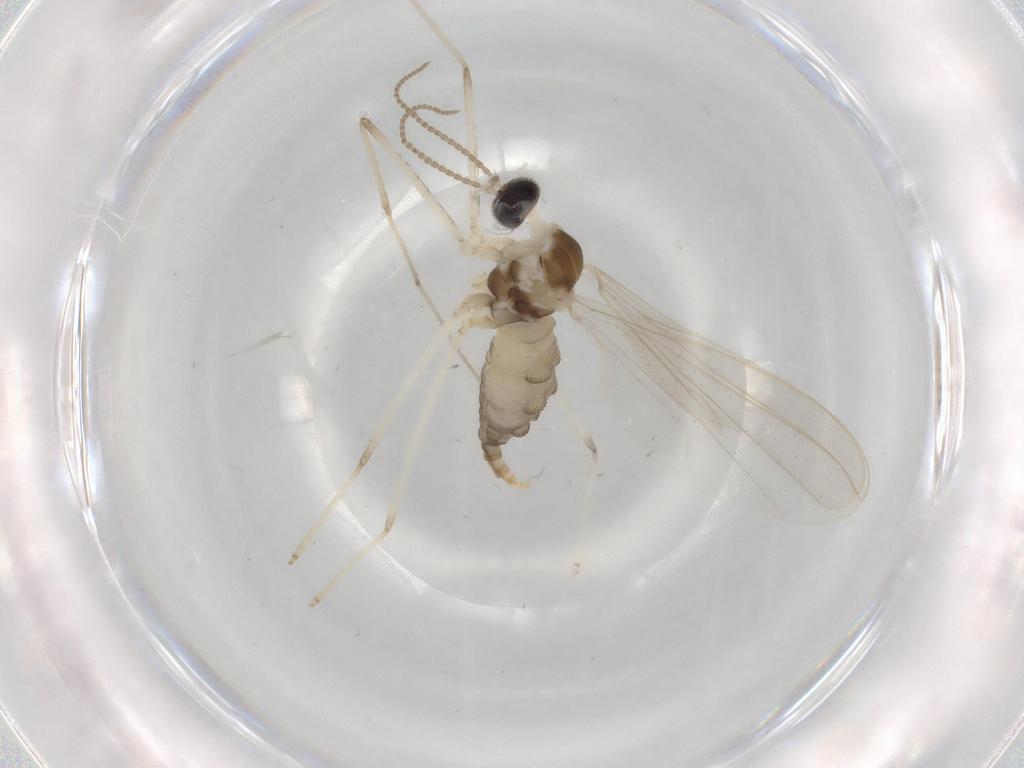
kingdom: Animalia
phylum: Arthropoda
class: Insecta
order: Diptera
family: Cecidomyiidae
